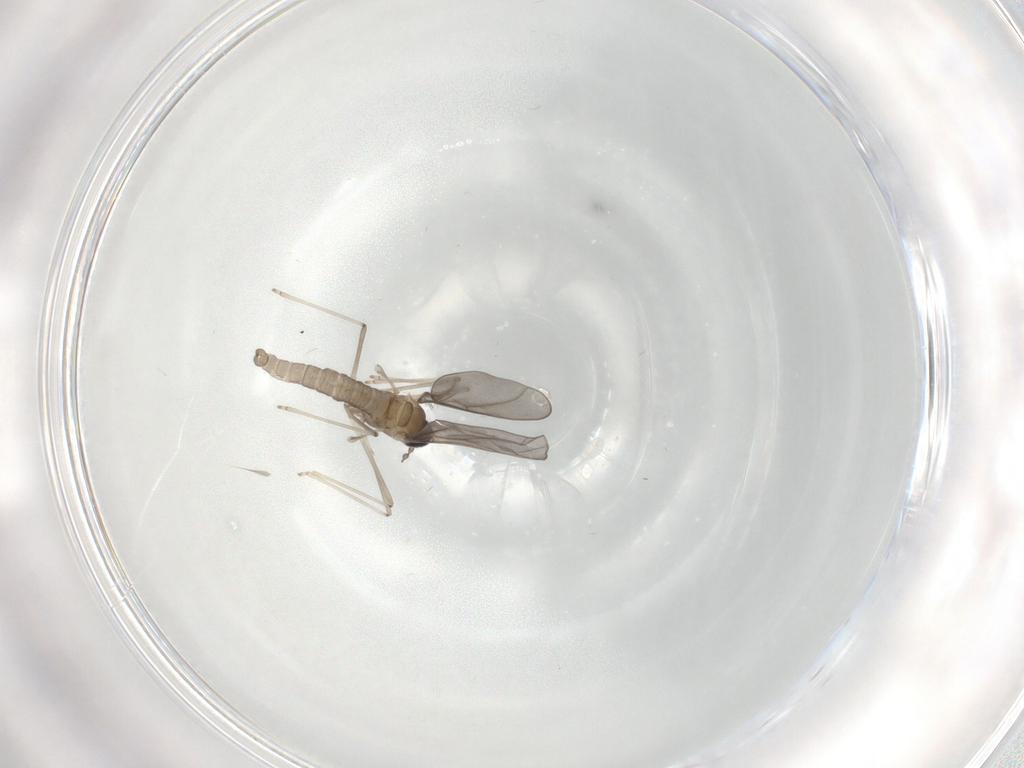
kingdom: Animalia
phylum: Arthropoda
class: Insecta
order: Diptera
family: Cecidomyiidae
